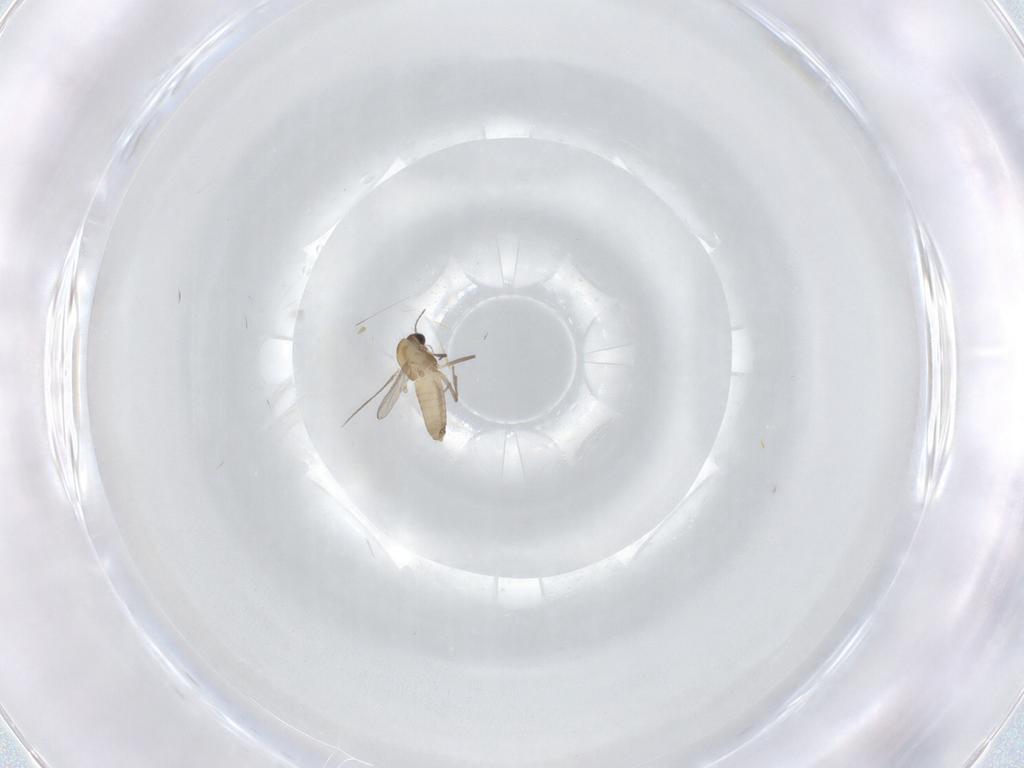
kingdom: Animalia
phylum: Arthropoda
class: Insecta
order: Diptera
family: Chironomidae
